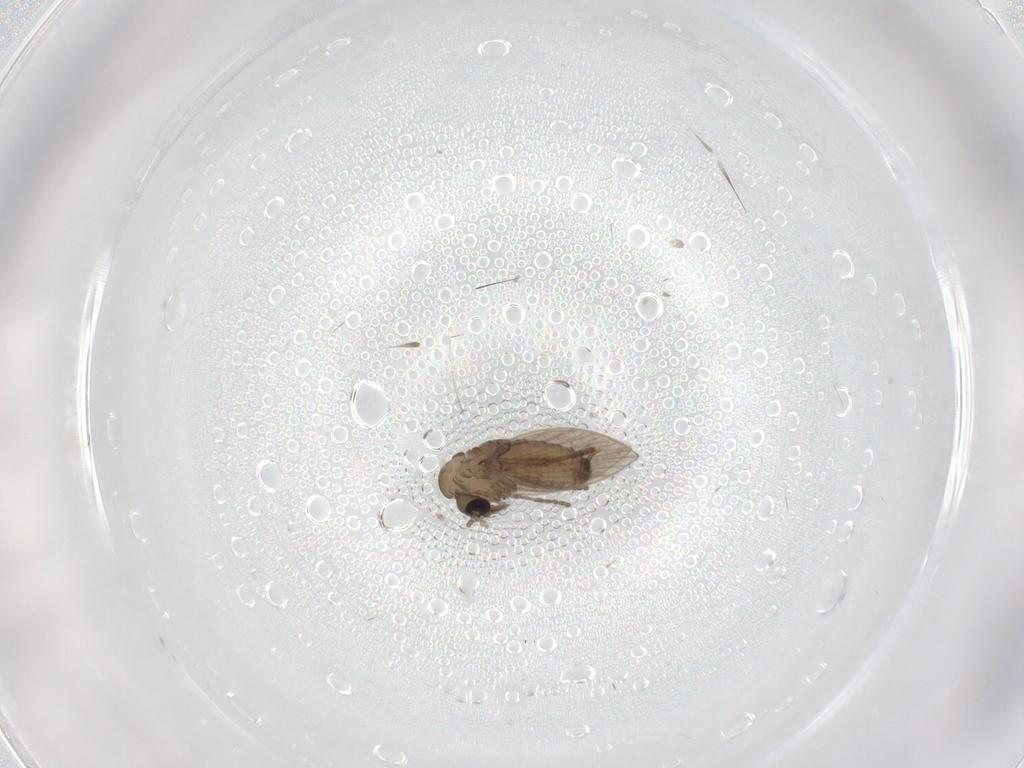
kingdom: Animalia
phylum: Arthropoda
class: Insecta
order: Diptera
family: Psychodidae
